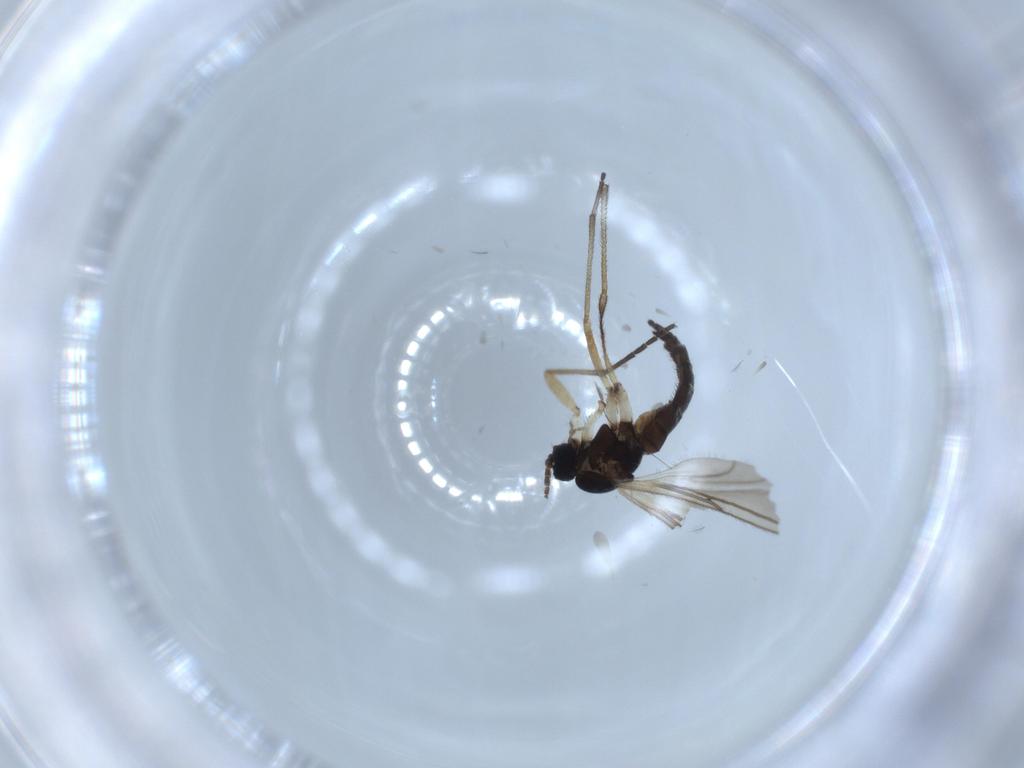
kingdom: Animalia
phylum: Arthropoda
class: Insecta
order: Diptera
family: Sciaridae
